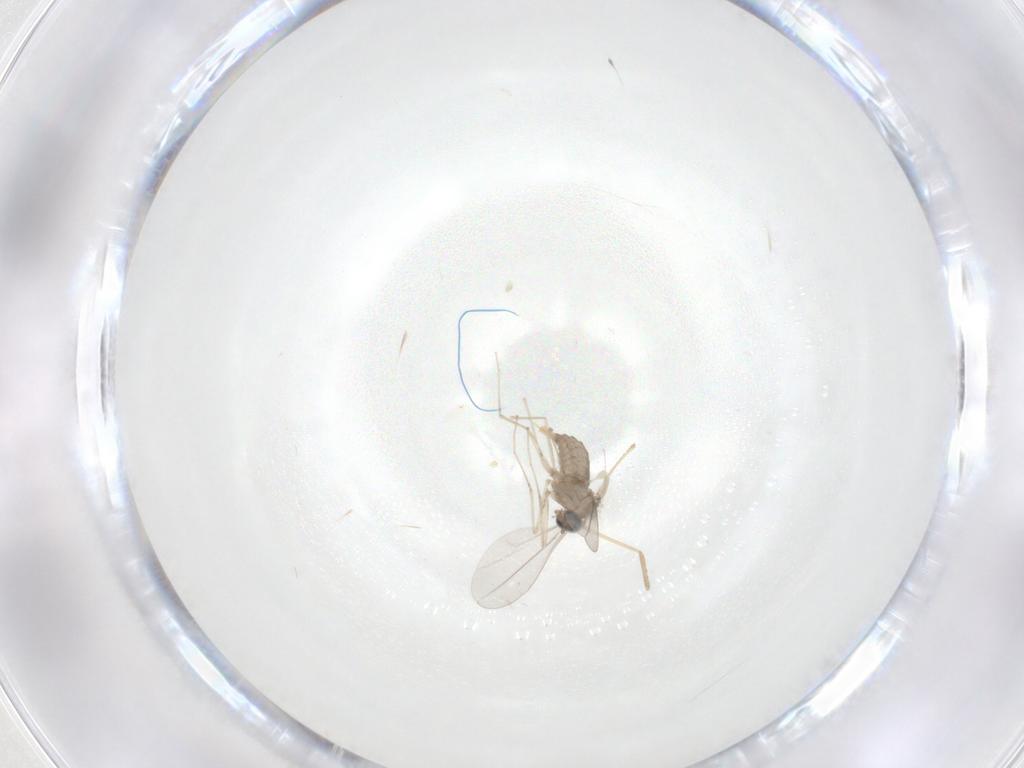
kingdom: Animalia
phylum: Arthropoda
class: Insecta
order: Diptera
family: Cecidomyiidae
